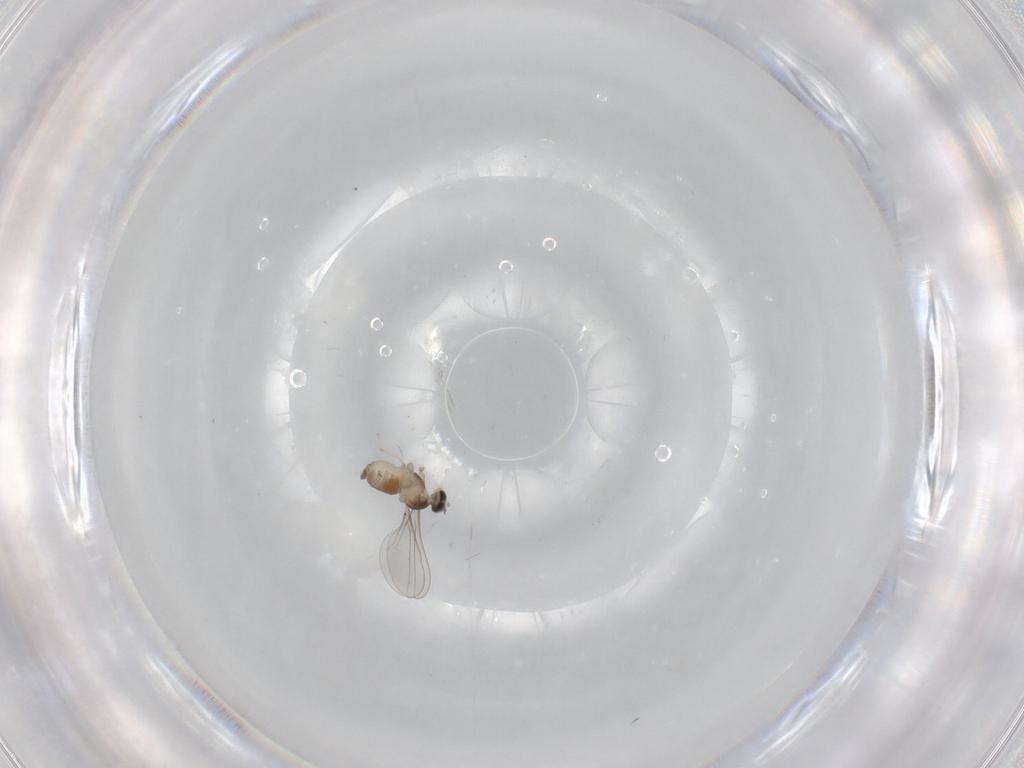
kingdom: Animalia
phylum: Arthropoda
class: Insecta
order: Diptera
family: Cecidomyiidae
